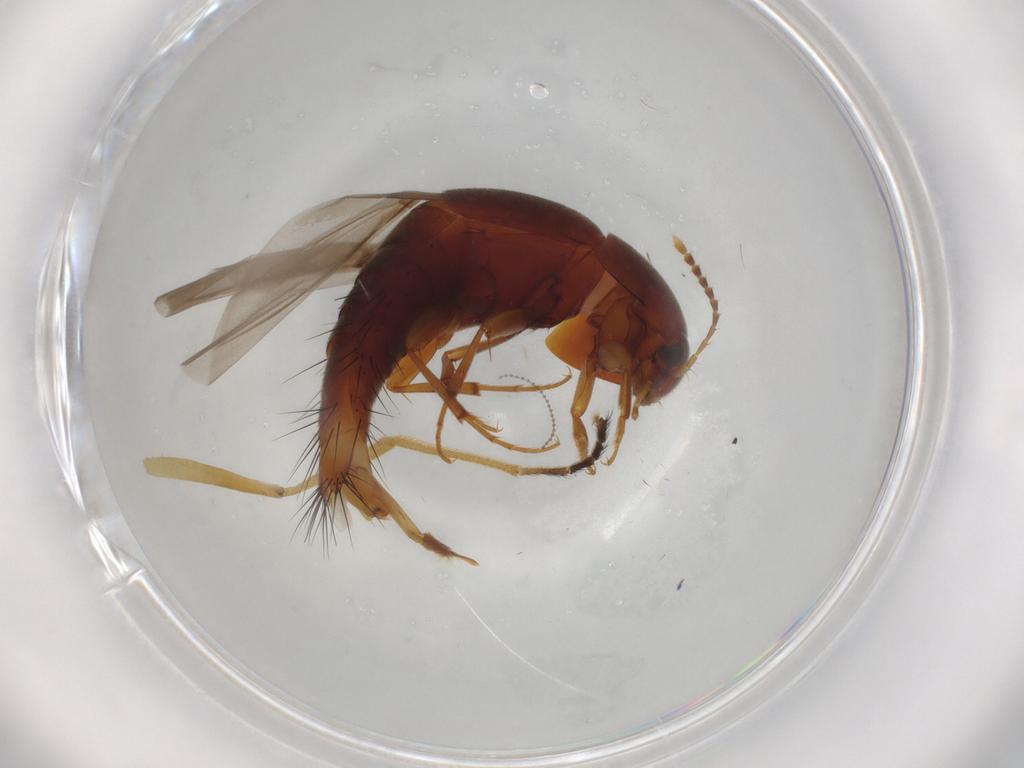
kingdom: Animalia
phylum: Arthropoda
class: Insecta
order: Coleoptera
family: Staphylinidae
